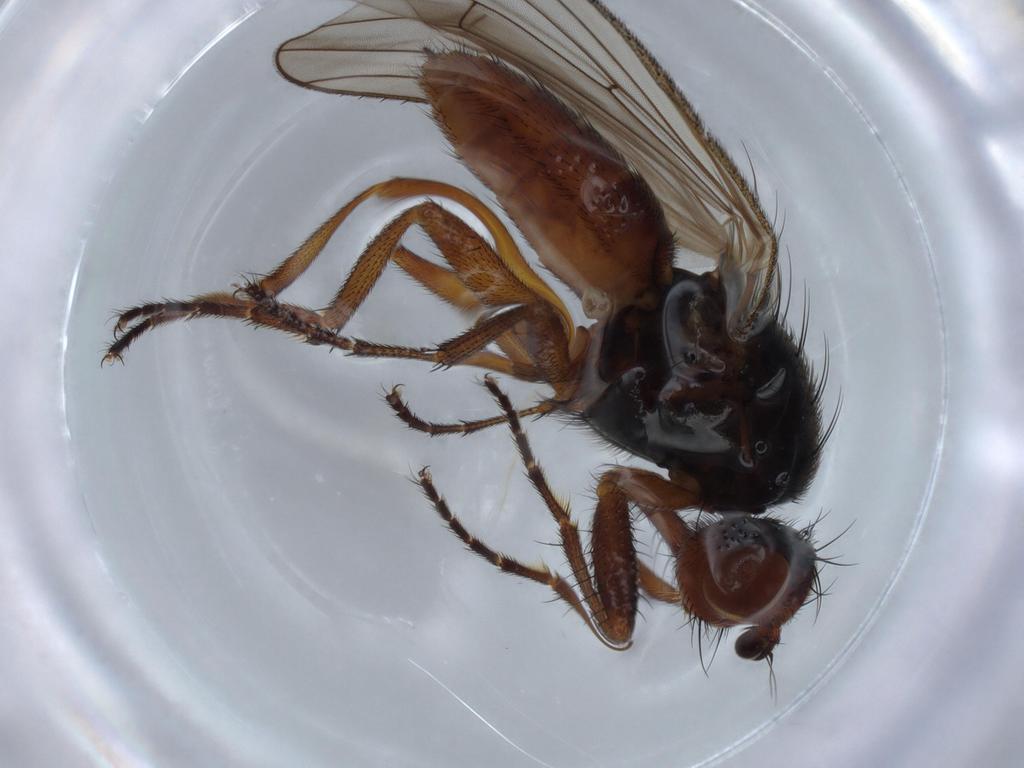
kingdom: Animalia
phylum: Arthropoda
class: Insecta
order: Diptera
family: Heleomyzidae
